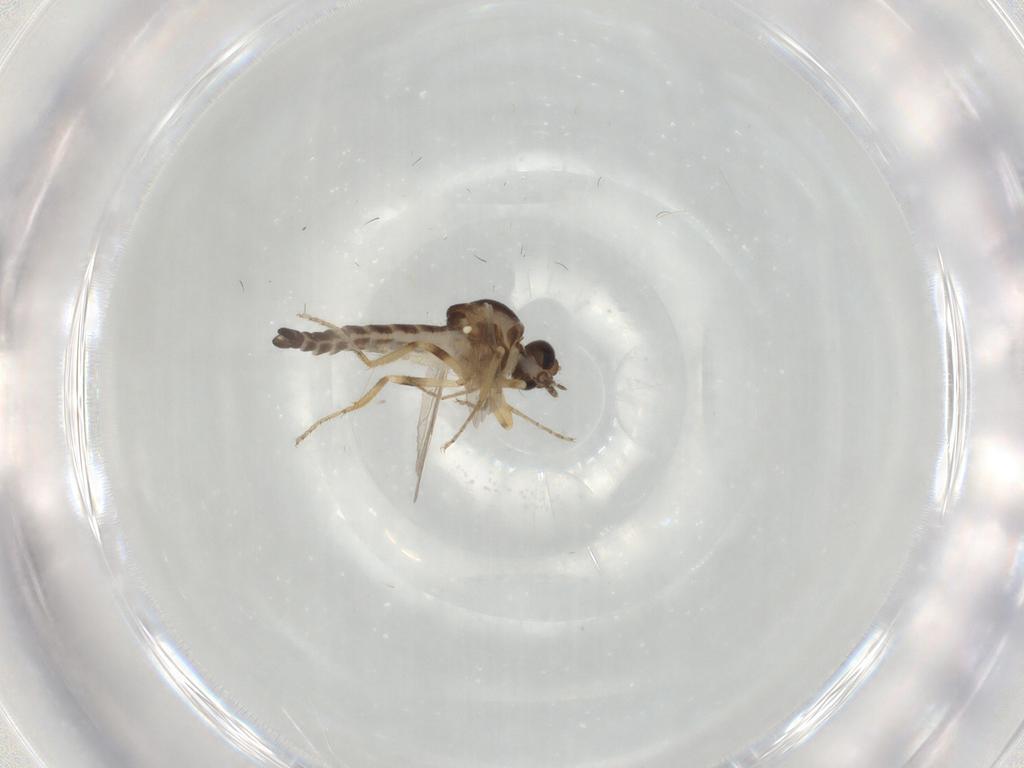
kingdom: Animalia
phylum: Arthropoda
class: Insecta
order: Diptera
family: Ceratopogonidae
